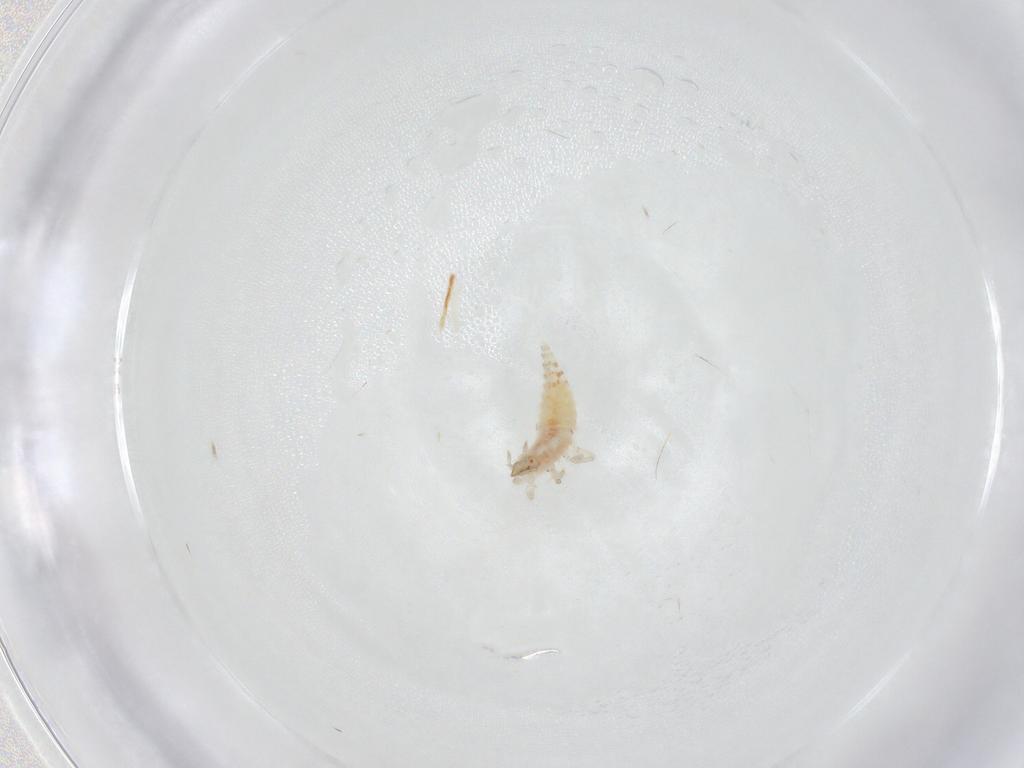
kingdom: Animalia
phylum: Arthropoda
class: Insecta
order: Neuroptera
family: Coniopterygidae
